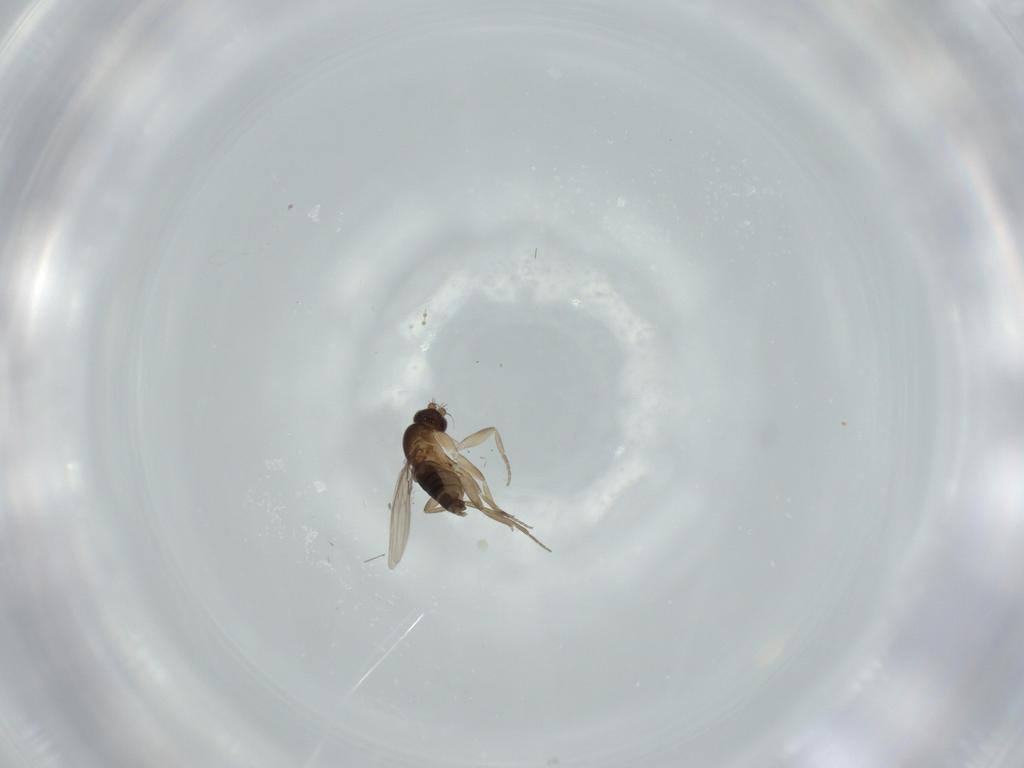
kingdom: Animalia
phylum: Arthropoda
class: Insecta
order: Diptera
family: Phoridae
